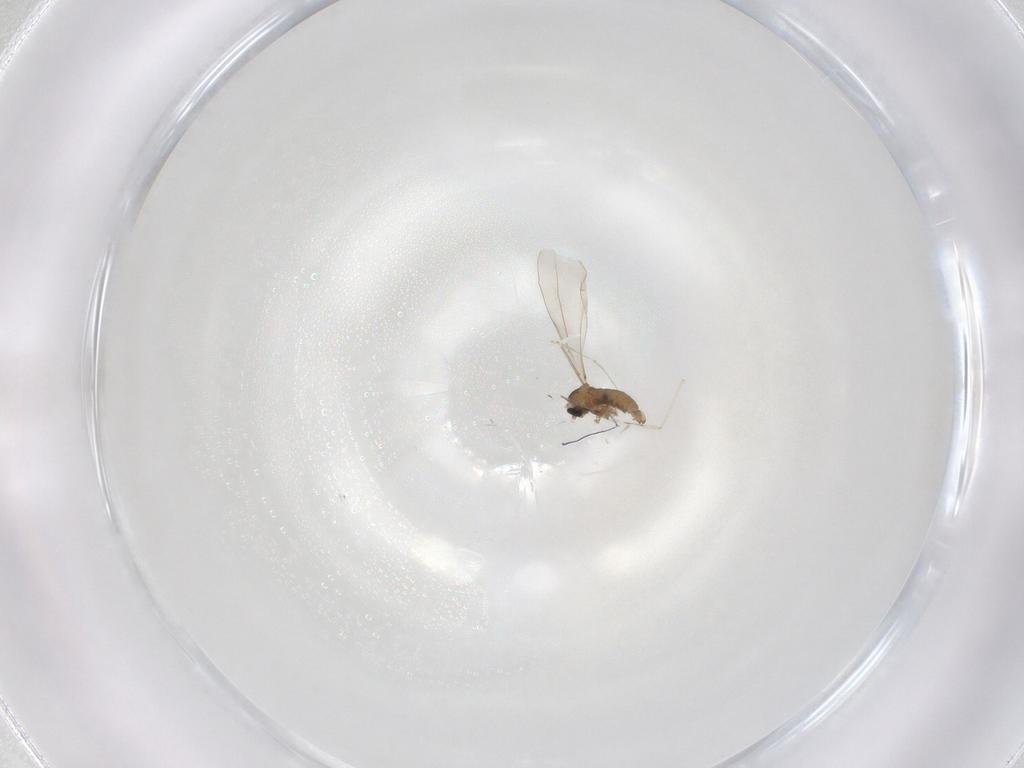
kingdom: Animalia
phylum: Arthropoda
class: Insecta
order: Diptera
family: Cecidomyiidae
